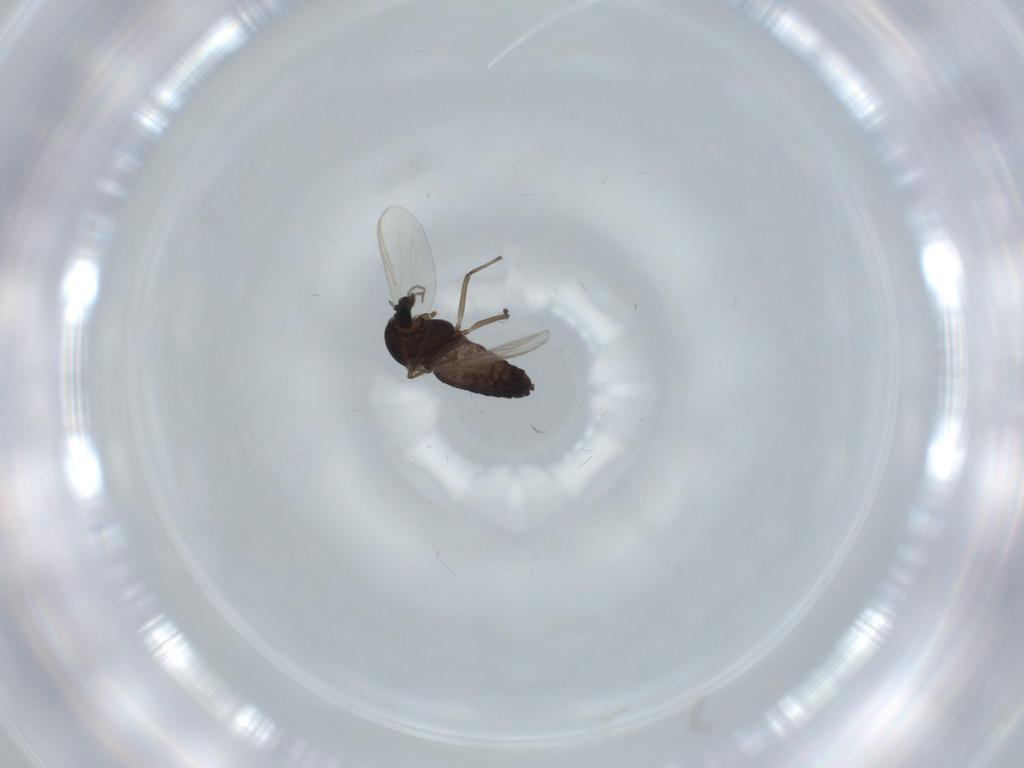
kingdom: Animalia
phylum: Arthropoda
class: Insecta
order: Diptera
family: Chironomidae
